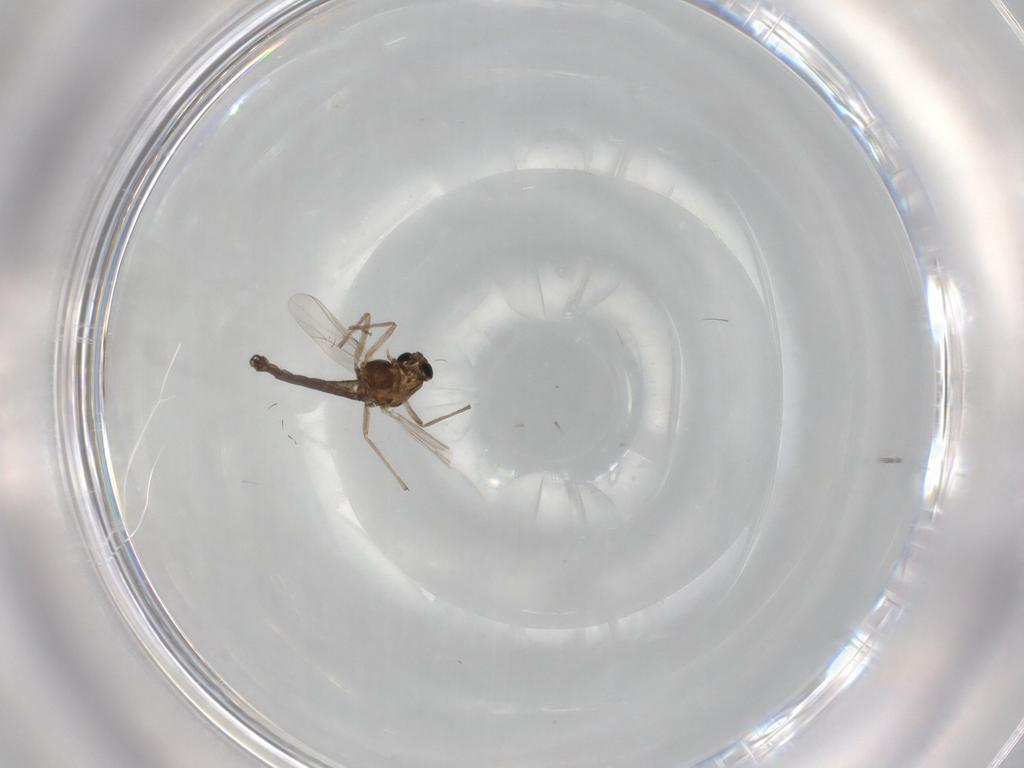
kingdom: Animalia
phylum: Arthropoda
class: Insecta
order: Diptera
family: Chironomidae
